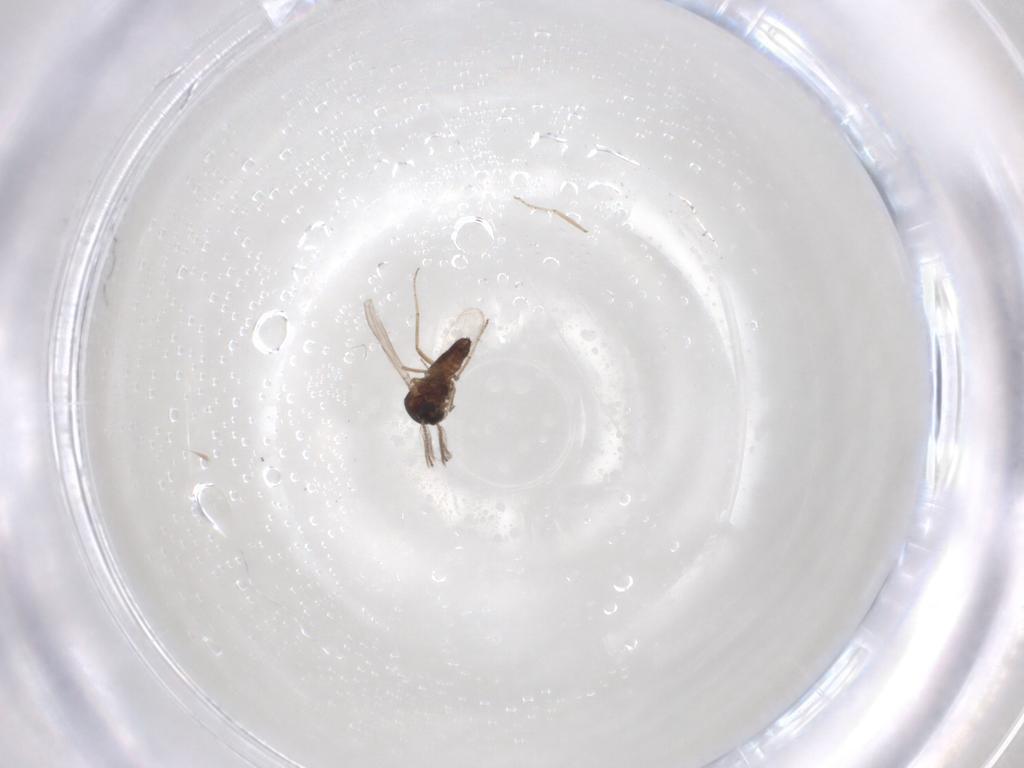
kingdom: Animalia
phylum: Arthropoda
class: Insecta
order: Diptera
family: Ceratopogonidae
